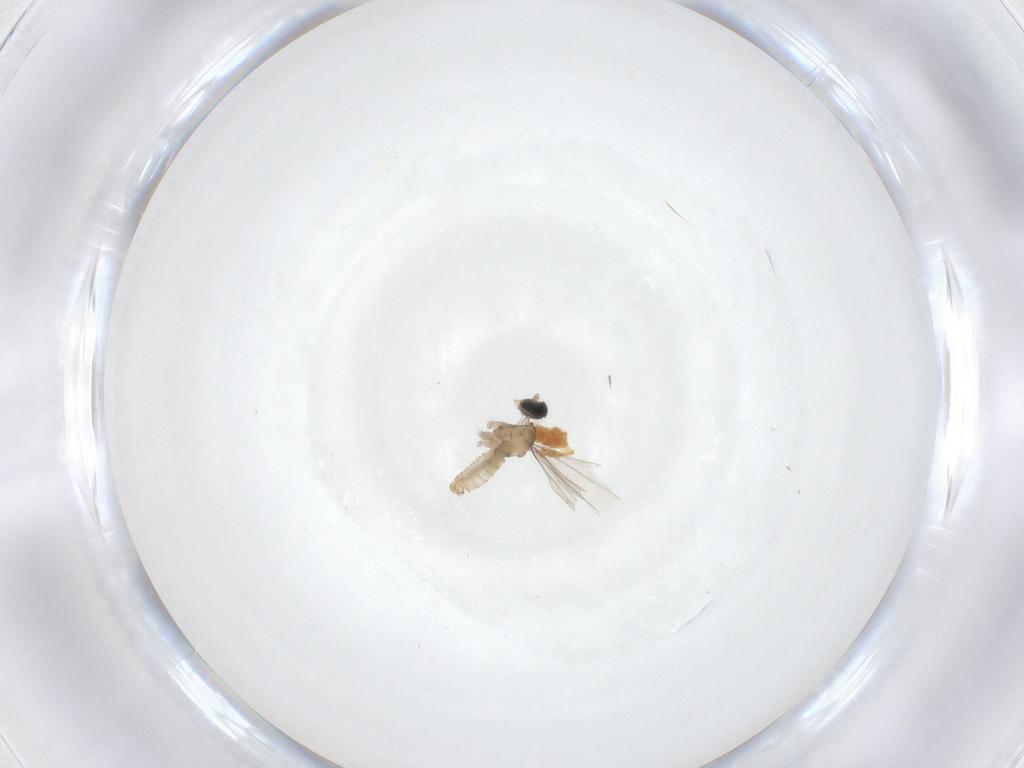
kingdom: Animalia
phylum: Arthropoda
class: Insecta
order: Diptera
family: Cecidomyiidae
